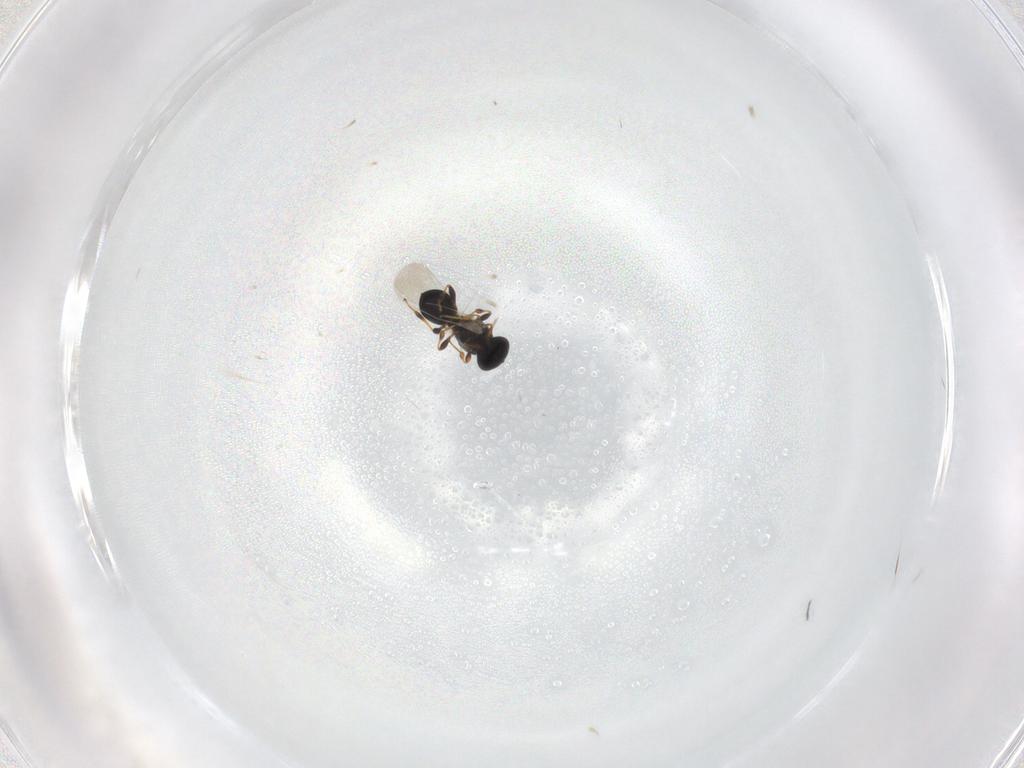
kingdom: Animalia
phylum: Arthropoda
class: Insecta
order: Hymenoptera
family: Platygastridae
